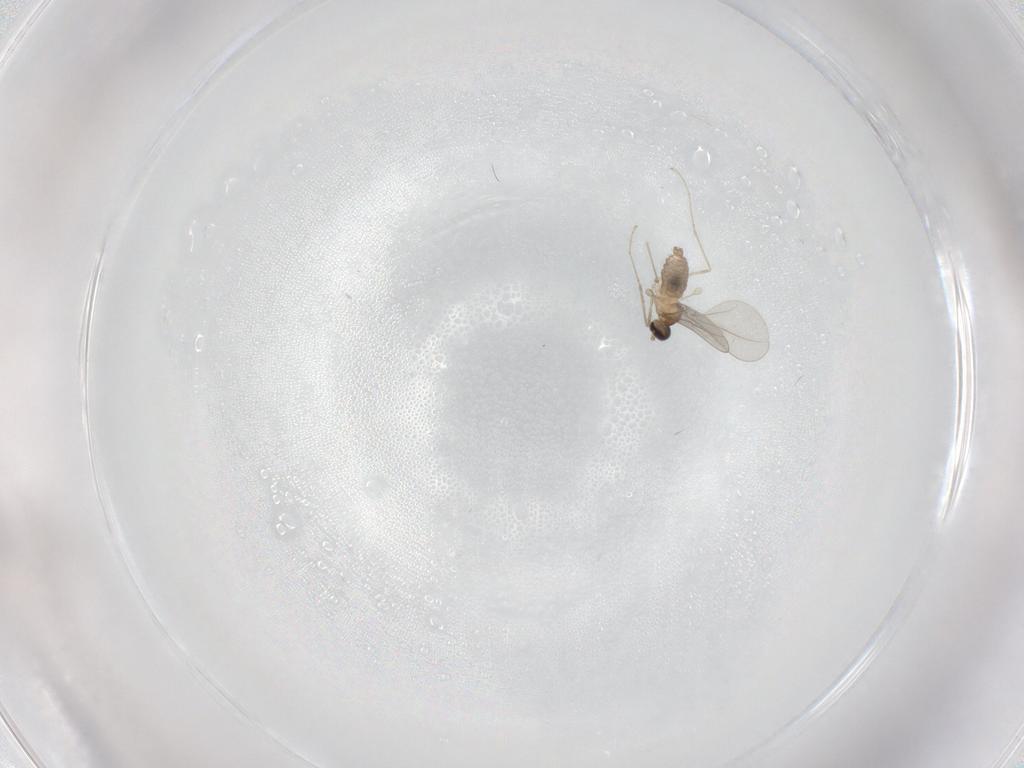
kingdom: Animalia
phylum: Arthropoda
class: Insecta
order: Diptera
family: Cecidomyiidae
